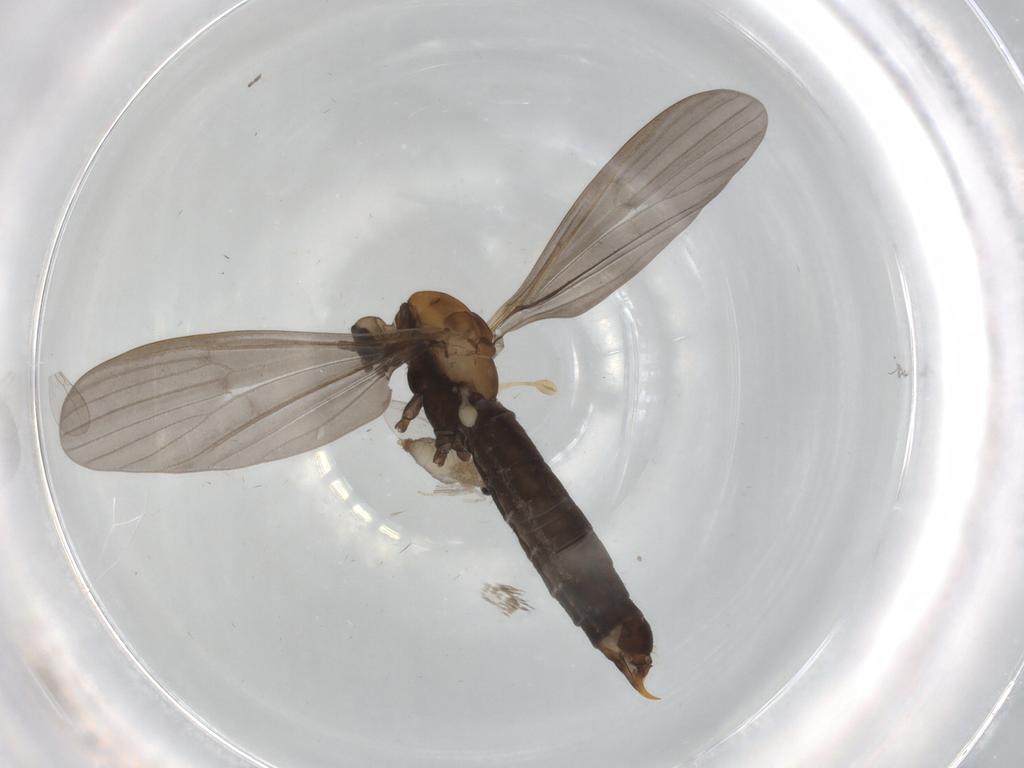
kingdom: Animalia
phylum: Arthropoda
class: Insecta
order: Diptera
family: Limoniidae
